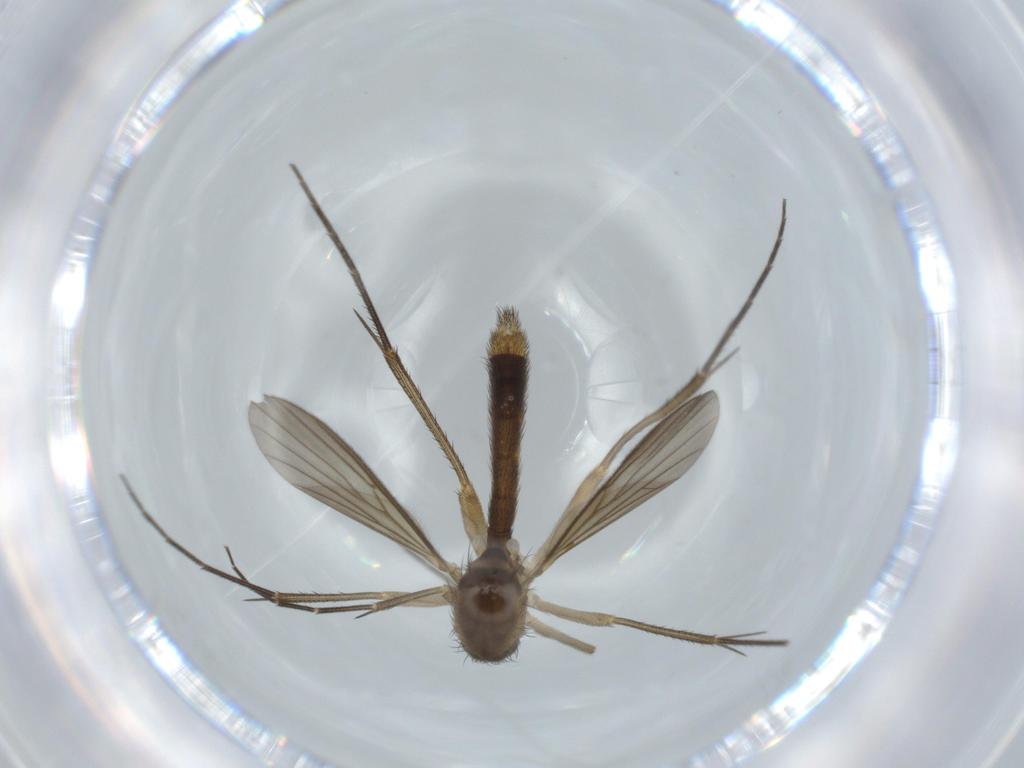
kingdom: Animalia
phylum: Arthropoda
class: Insecta
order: Diptera
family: Mycetophilidae
